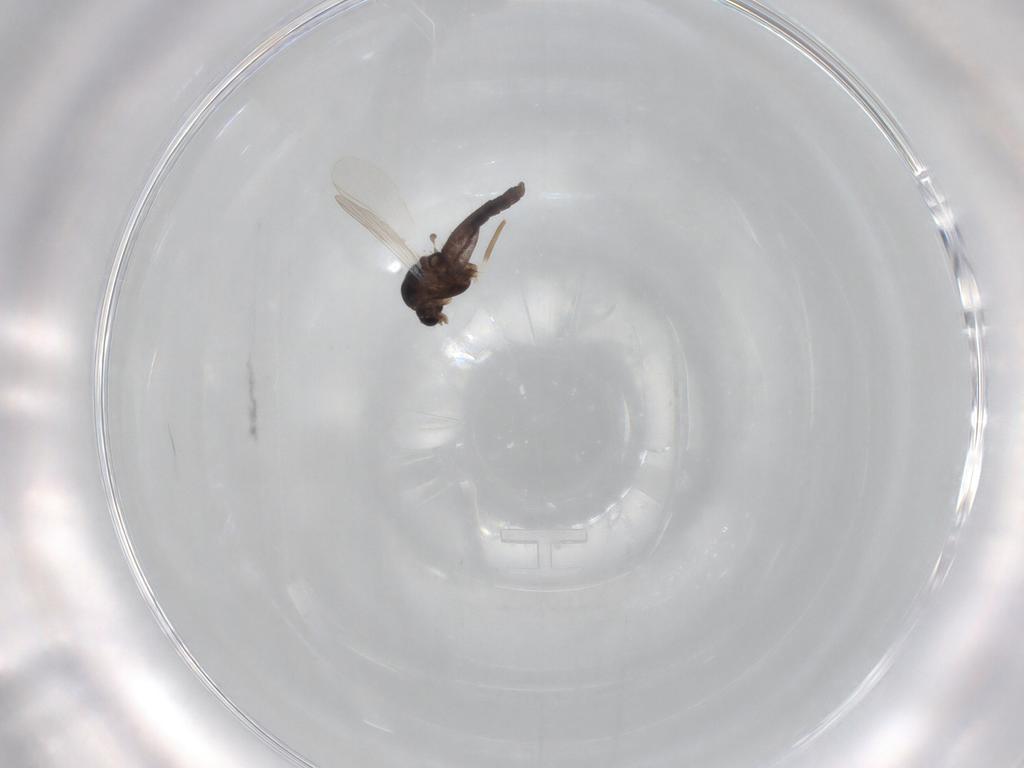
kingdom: Animalia
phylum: Arthropoda
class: Insecta
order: Diptera
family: Chironomidae
